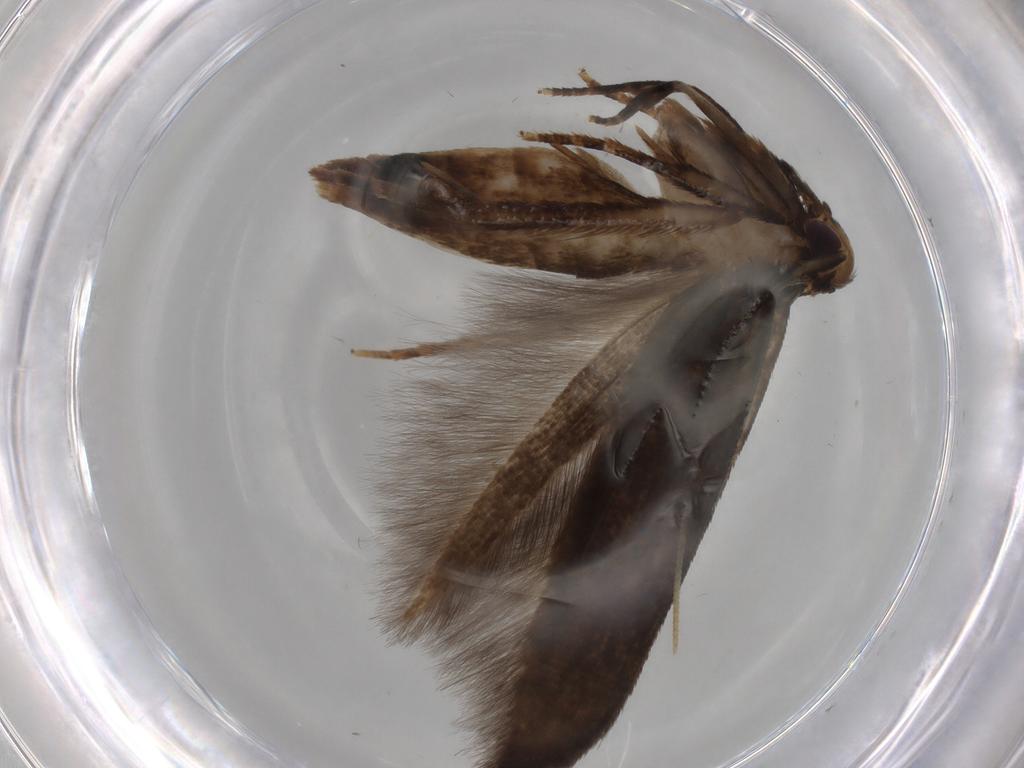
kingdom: Animalia
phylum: Arthropoda
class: Insecta
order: Lepidoptera
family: Gelechiidae
